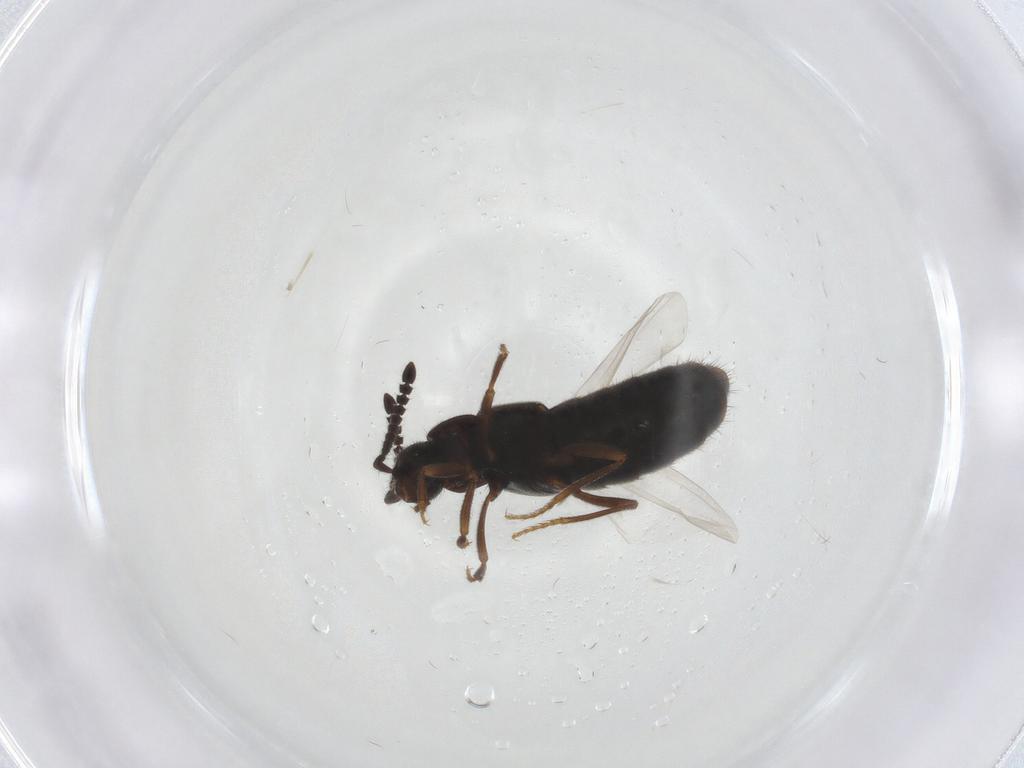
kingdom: Animalia
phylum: Arthropoda
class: Insecta
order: Coleoptera
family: Staphylinidae
